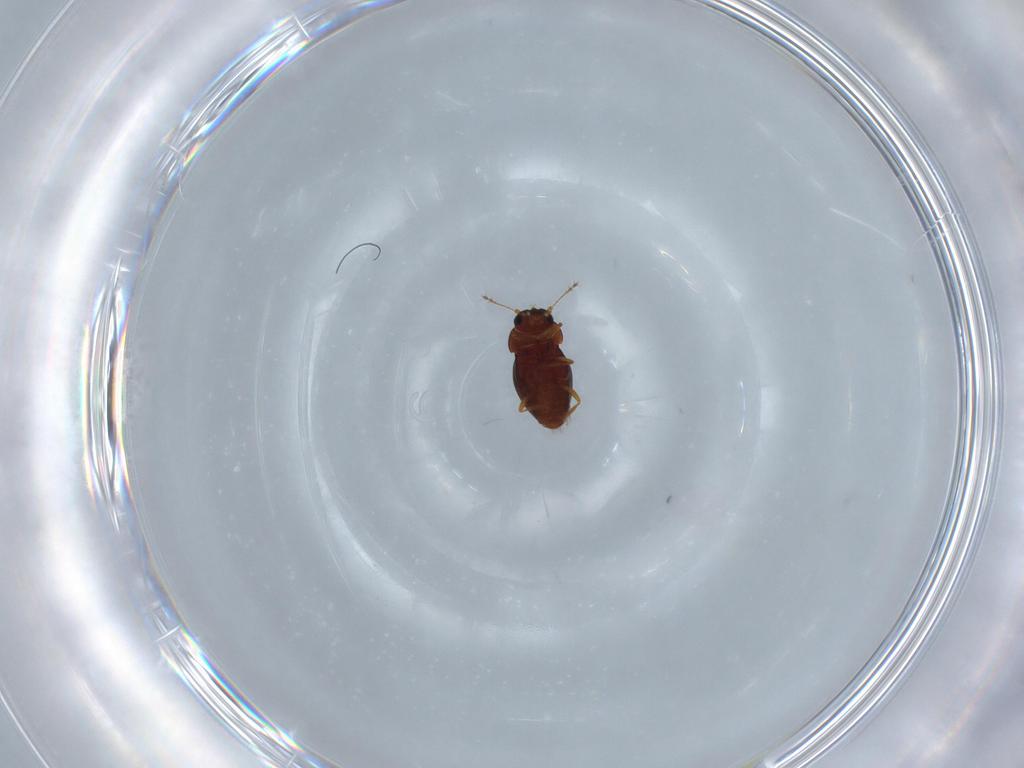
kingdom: Animalia
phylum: Arthropoda
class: Insecta
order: Coleoptera
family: Ptiliidae
